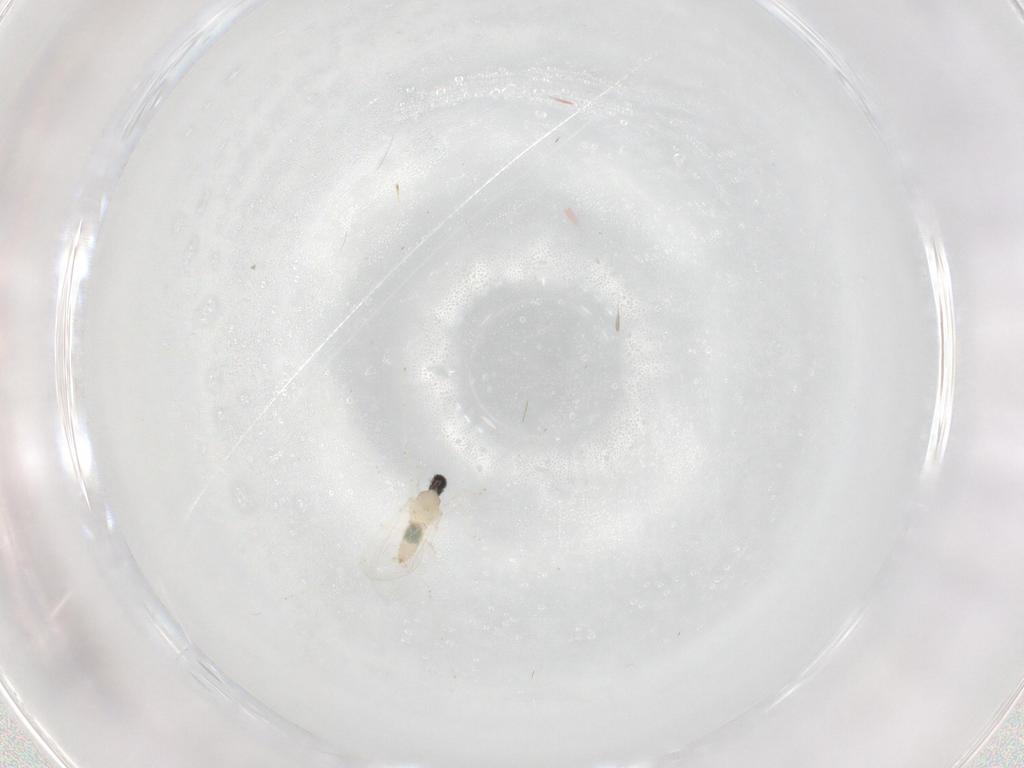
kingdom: Animalia
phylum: Arthropoda
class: Insecta
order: Diptera
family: Cecidomyiidae
